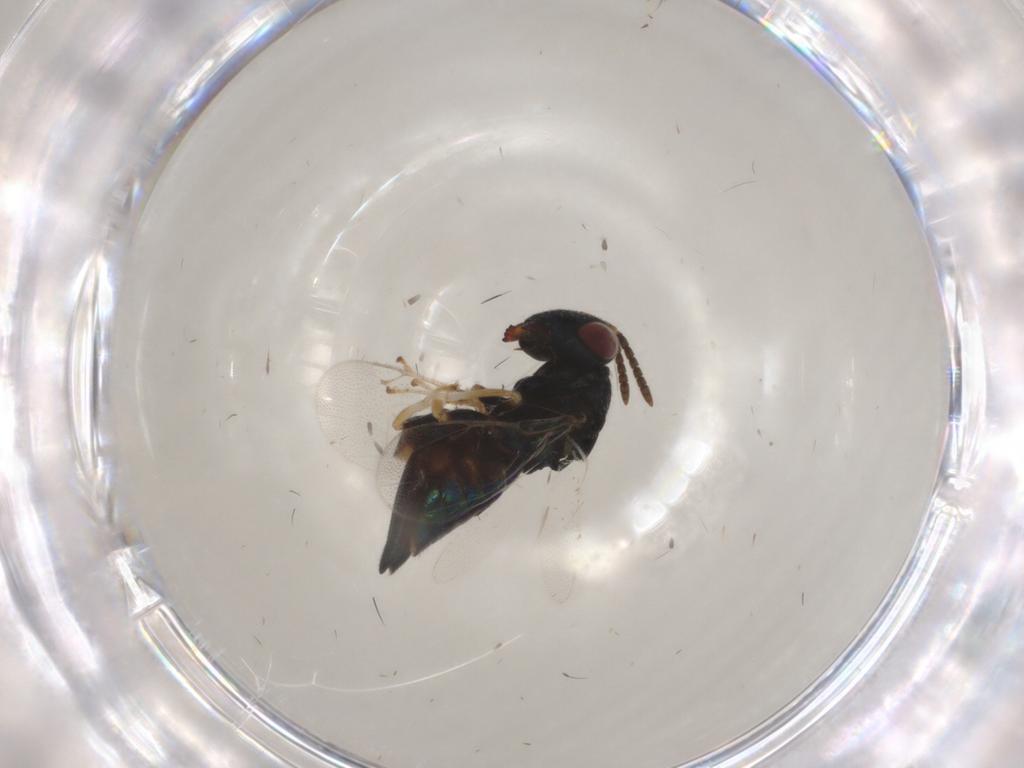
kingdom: Animalia
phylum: Arthropoda
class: Insecta
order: Hymenoptera
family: Pteromalidae
